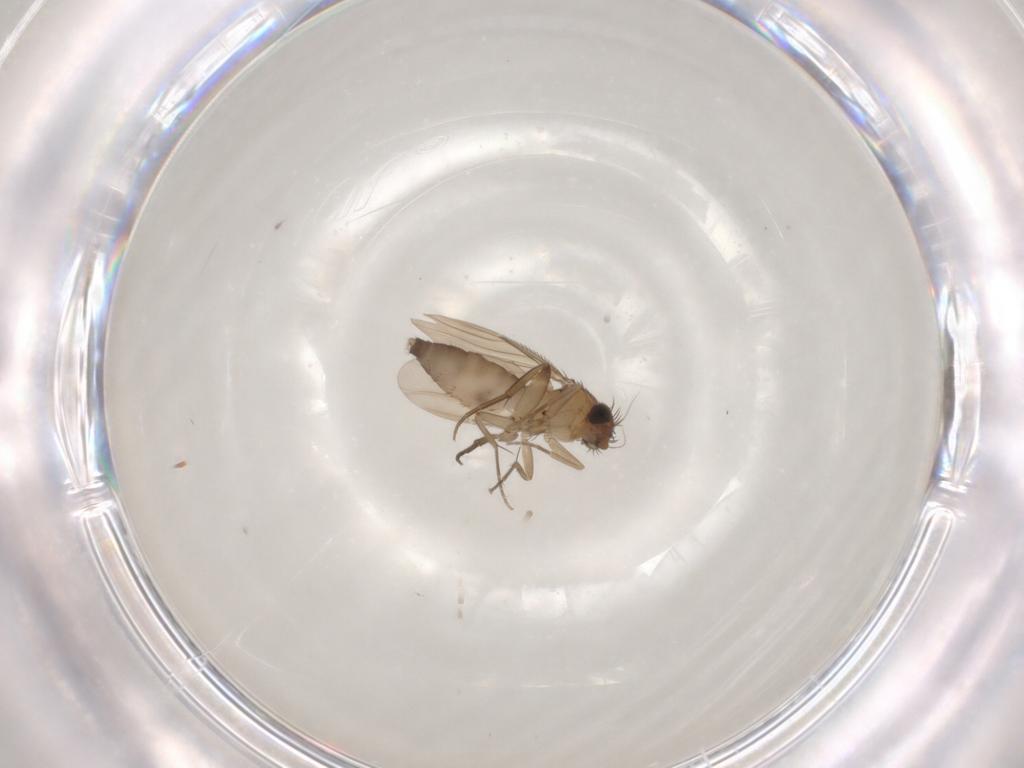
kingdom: Animalia
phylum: Arthropoda
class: Insecta
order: Diptera
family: Phoridae
